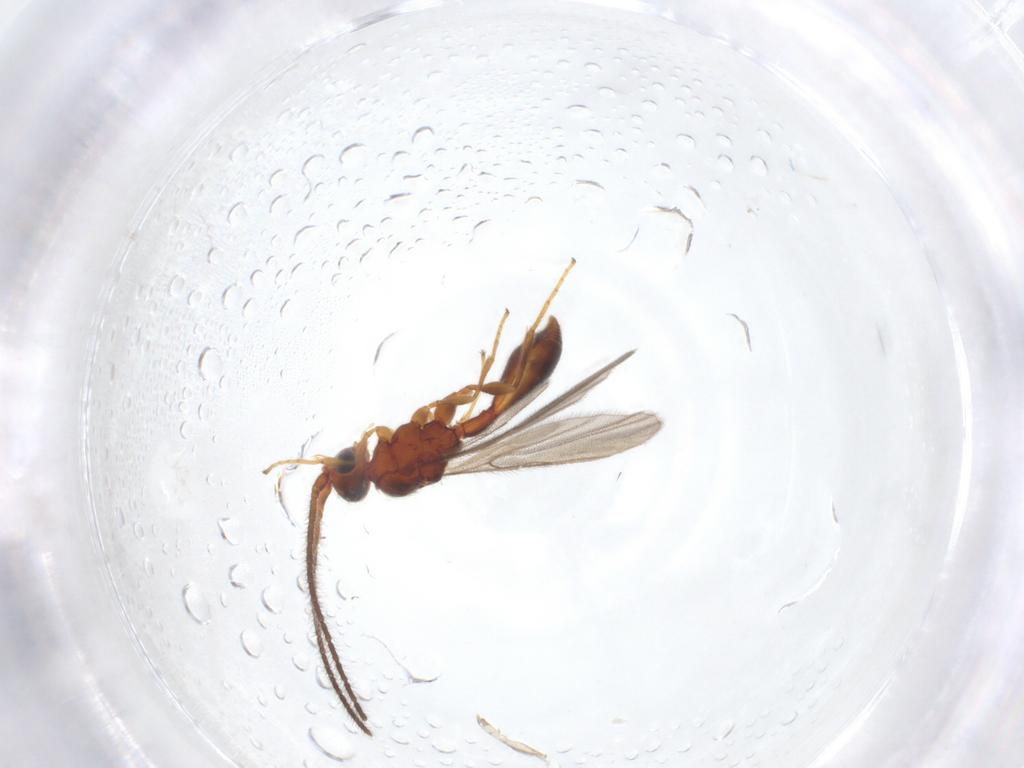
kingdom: Animalia
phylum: Arthropoda
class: Insecta
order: Hymenoptera
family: Diapriidae
